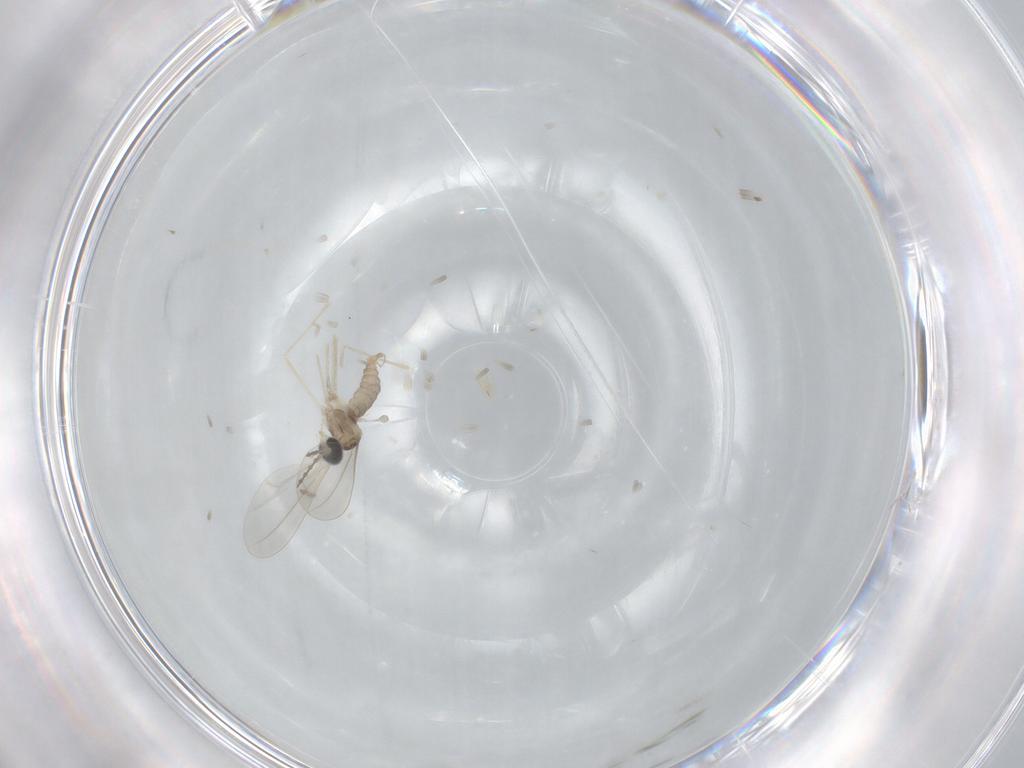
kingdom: Animalia
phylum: Arthropoda
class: Insecta
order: Diptera
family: Cecidomyiidae
